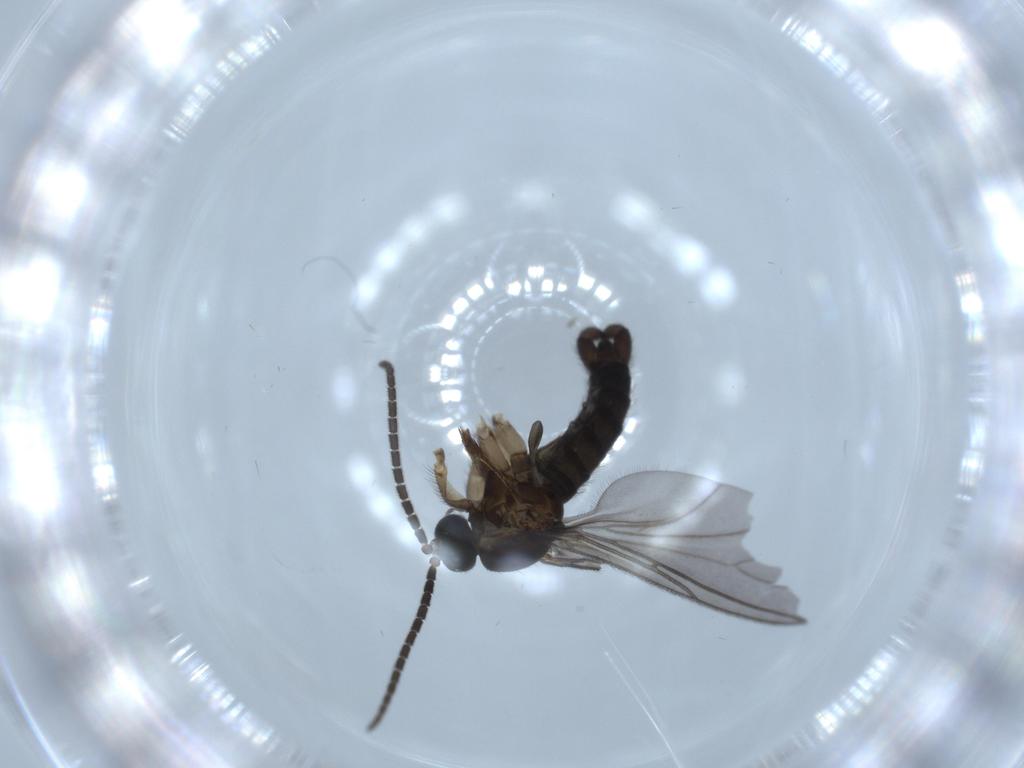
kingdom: Animalia
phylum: Arthropoda
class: Insecta
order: Diptera
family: Sciaridae
